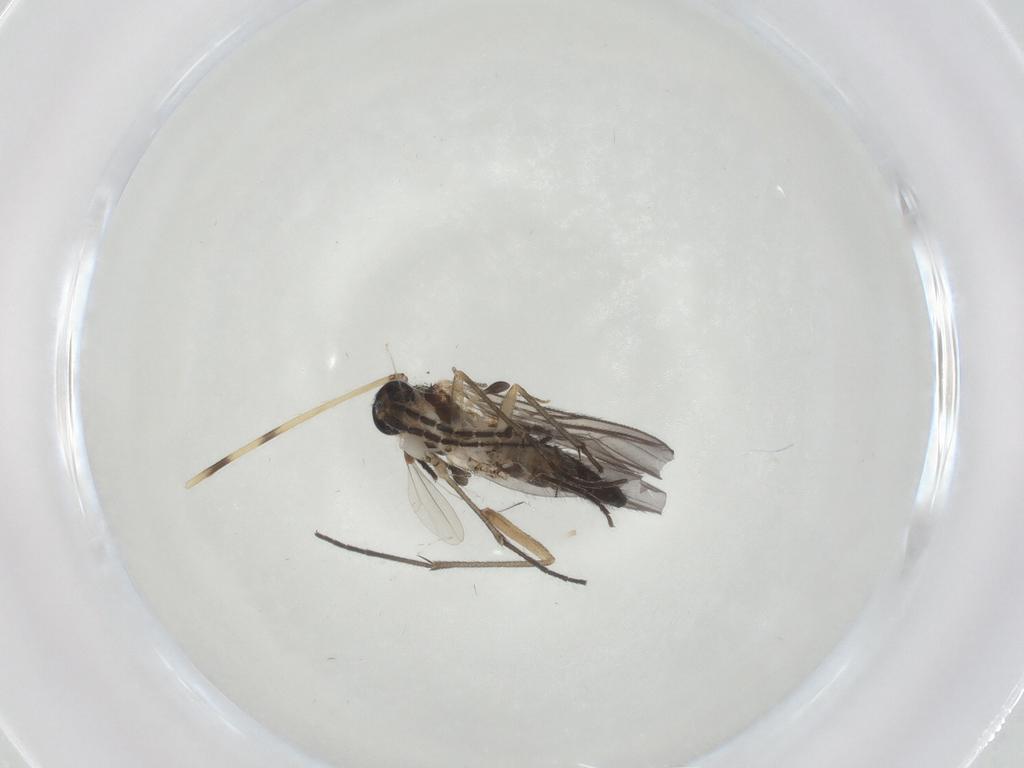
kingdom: Animalia
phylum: Arthropoda
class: Insecta
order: Diptera
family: Sciaridae
